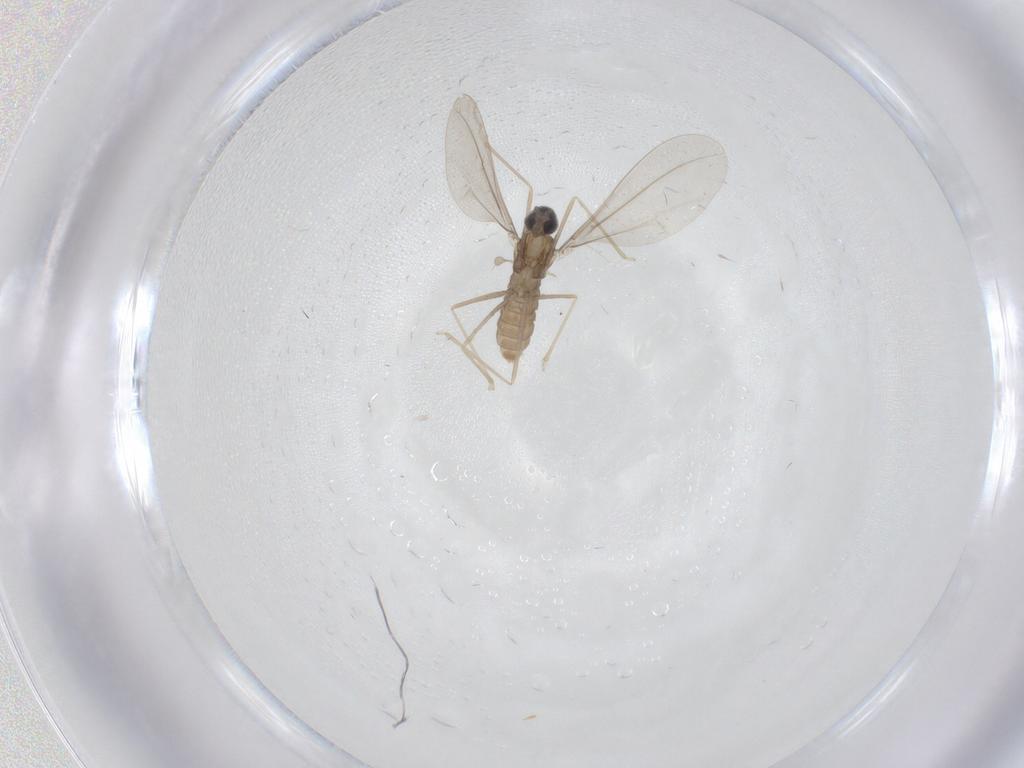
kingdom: Animalia
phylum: Arthropoda
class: Insecta
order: Diptera
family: Cecidomyiidae
